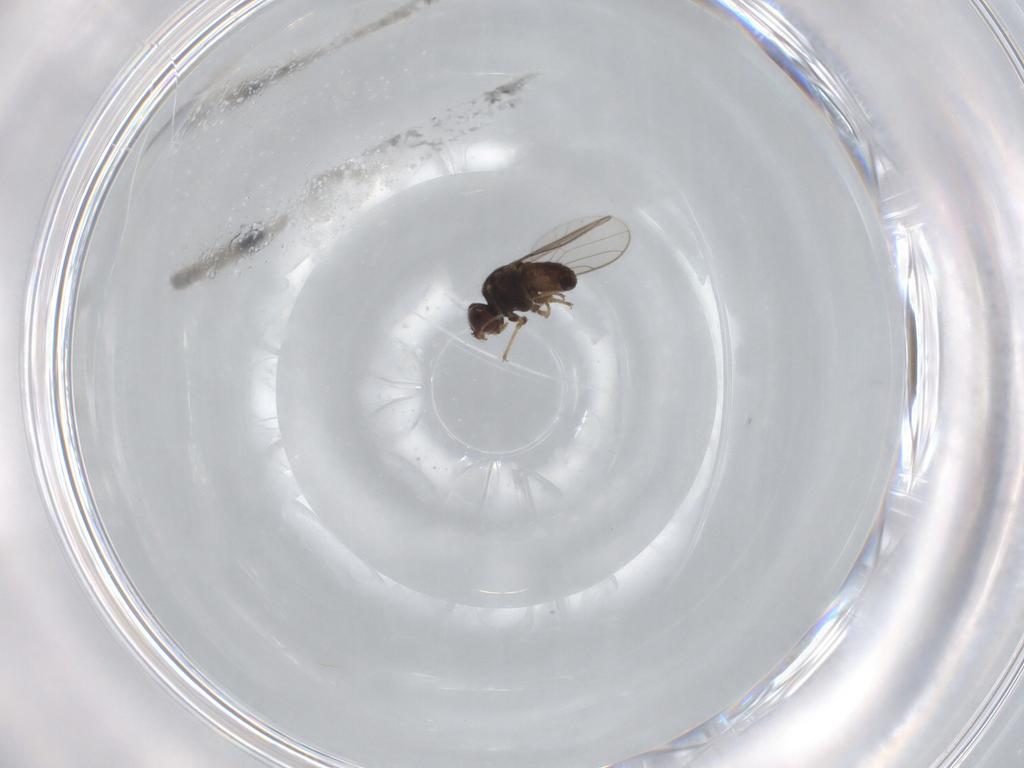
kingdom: Animalia
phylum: Arthropoda
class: Insecta
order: Diptera
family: Chloropidae
